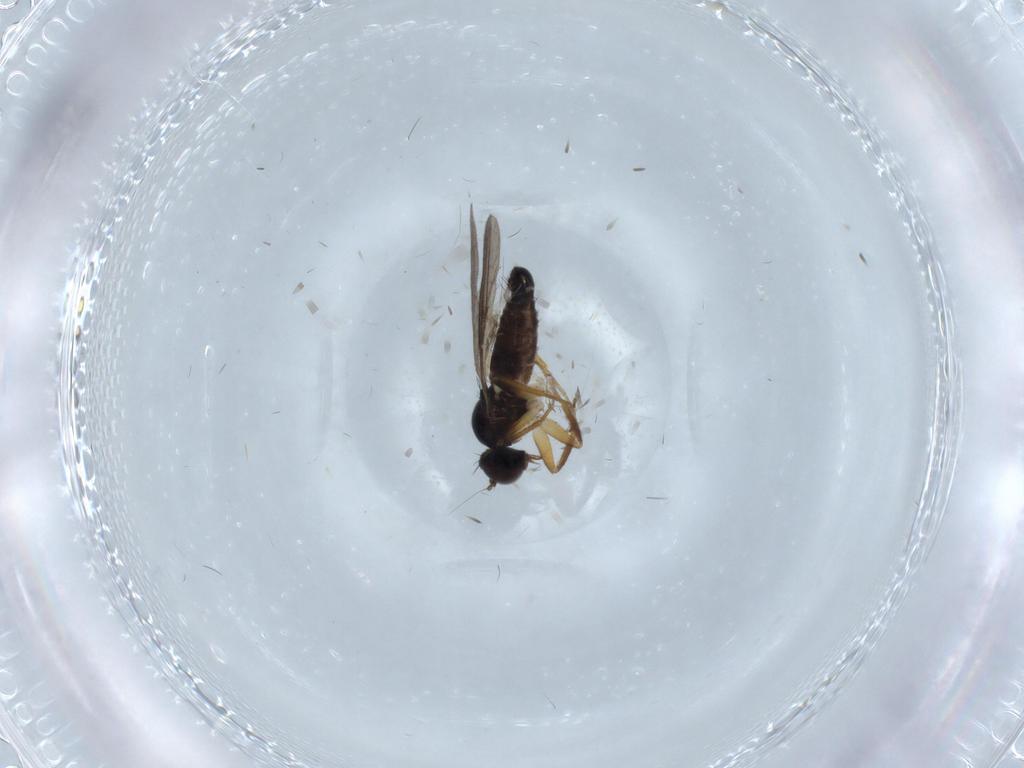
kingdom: Animalia
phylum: Arthropoda
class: Insecta
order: Diptera
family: Hybotidae
